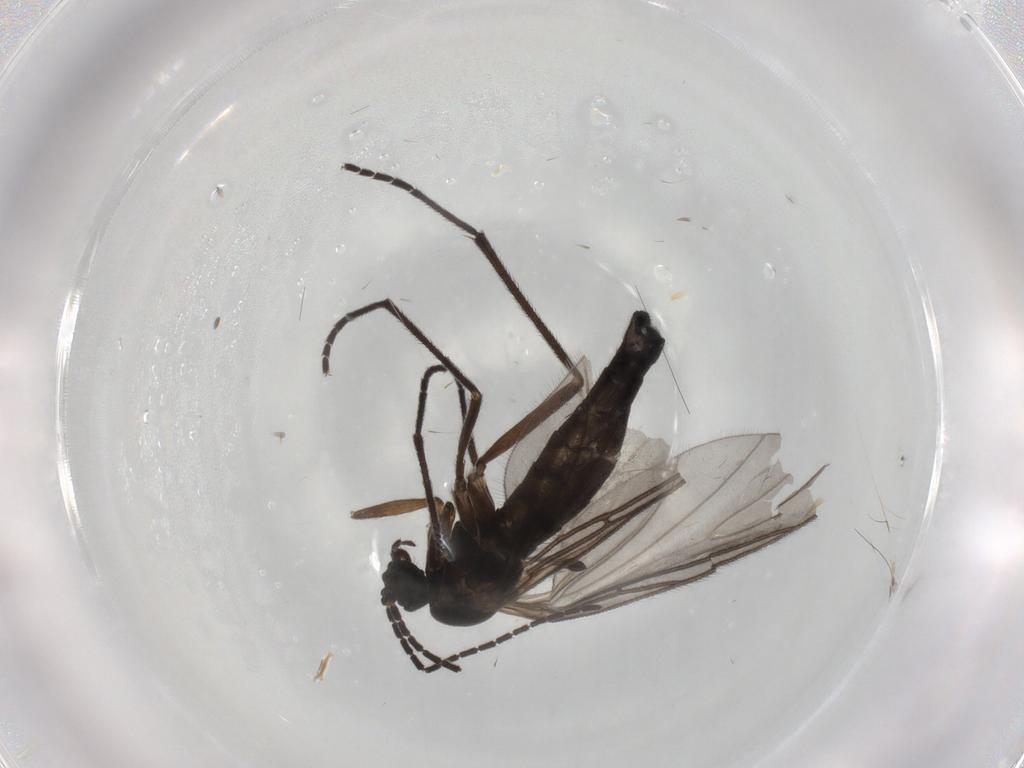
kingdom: Animalia
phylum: Arthropoda
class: Insecta
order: Diptera
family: Sciaridae
